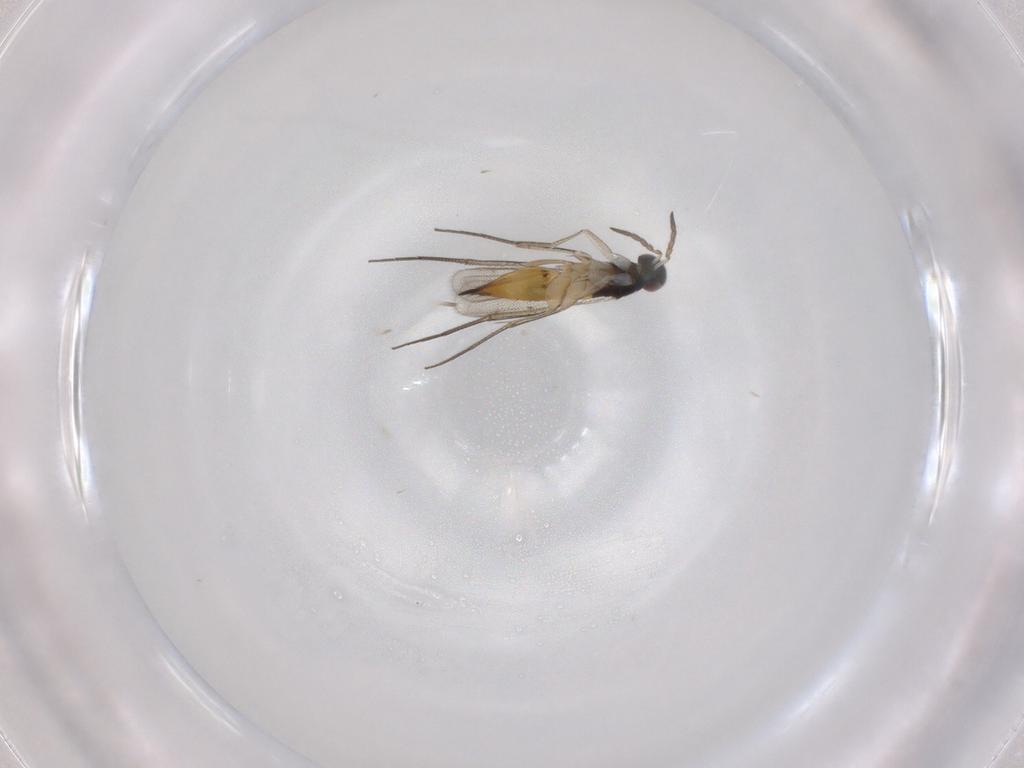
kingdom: Animalia
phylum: Arthropoda
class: Insecta
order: Hymenoptera
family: Eulophidae
